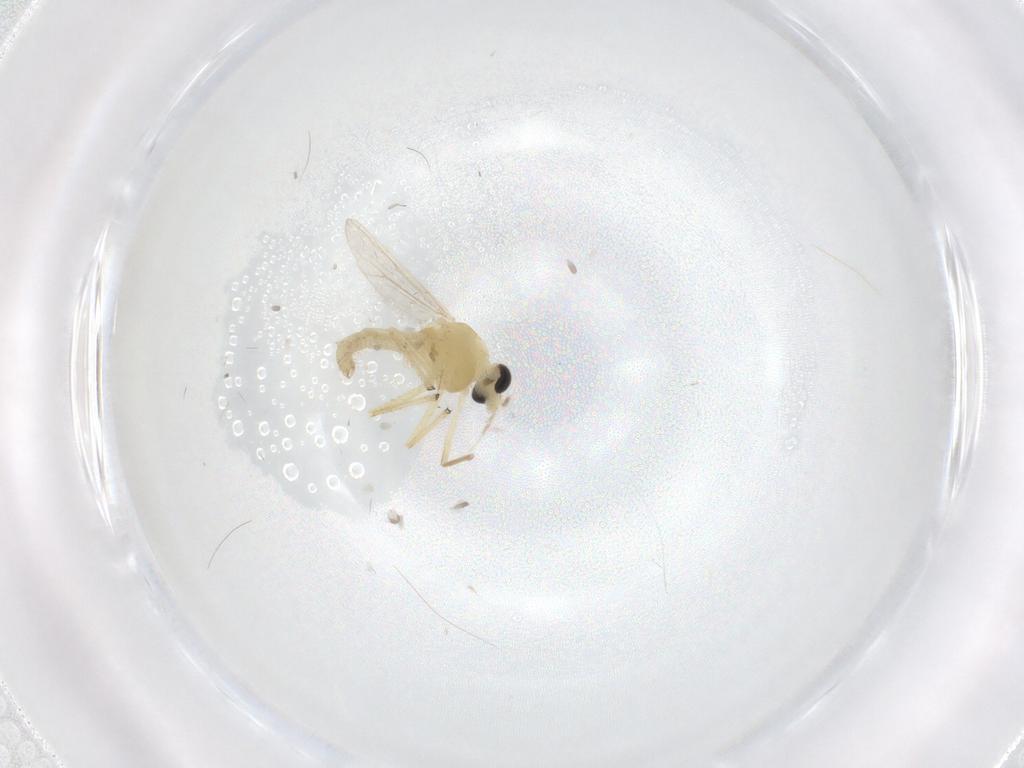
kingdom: Animalia
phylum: Arthropoda
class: Insecta
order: Diptera
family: Chironomidae
